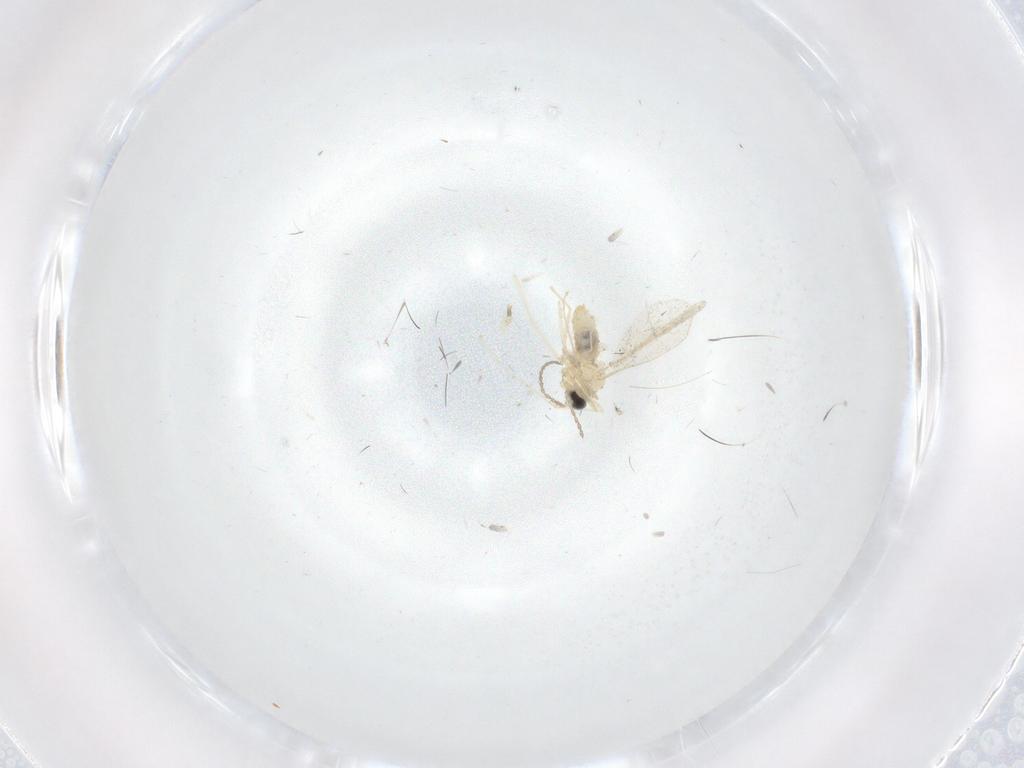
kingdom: Animalia
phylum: Arthropoda
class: Insecta
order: Diptera
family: Cecidomyiidae
